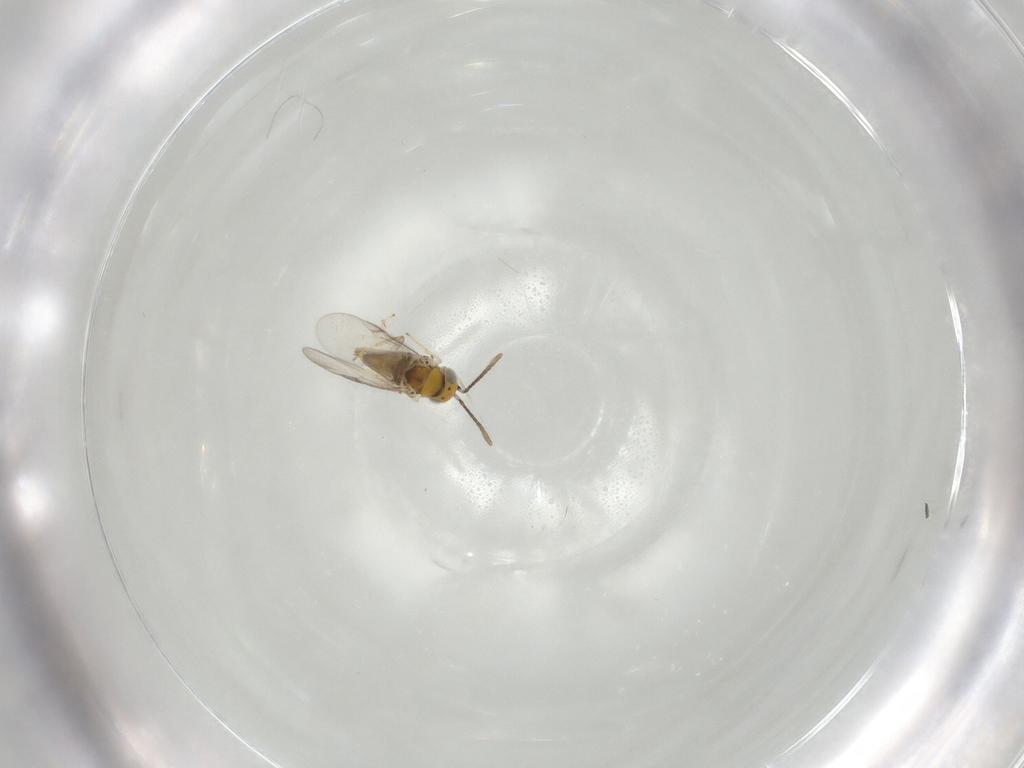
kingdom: Animalia
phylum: Arthropoda
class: Insecta
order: Hymenoptera
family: Encyrtidae
